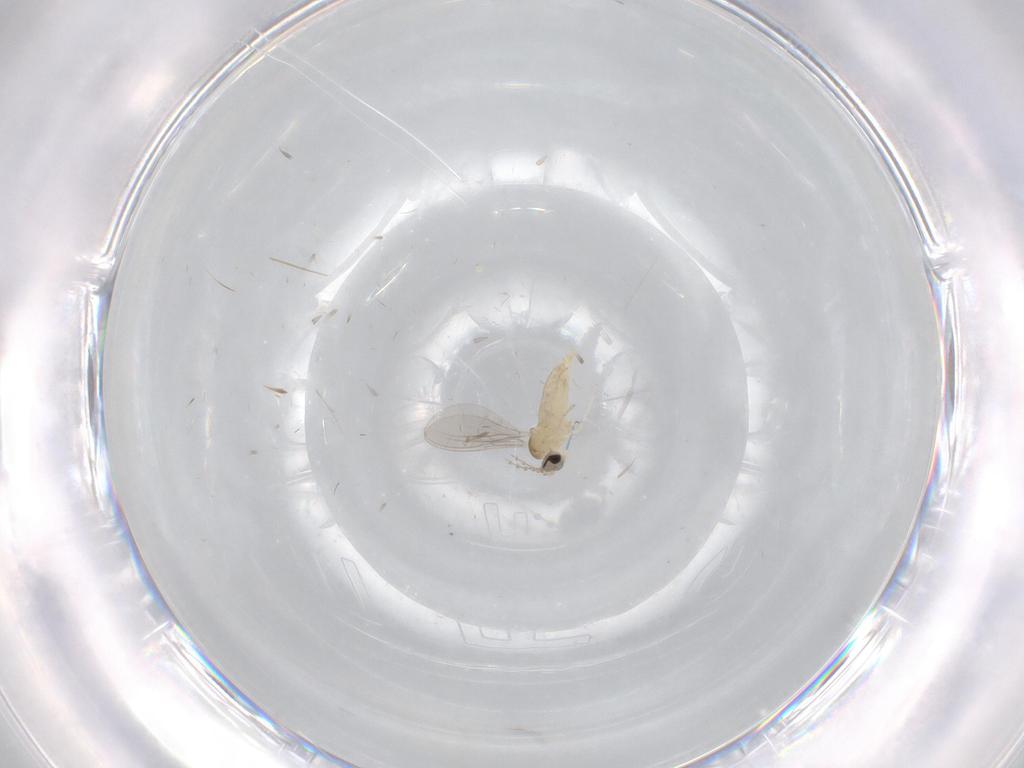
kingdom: Animalia
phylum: Arthropoda
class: Insecta
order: Diptera
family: Cecidomyiidae
